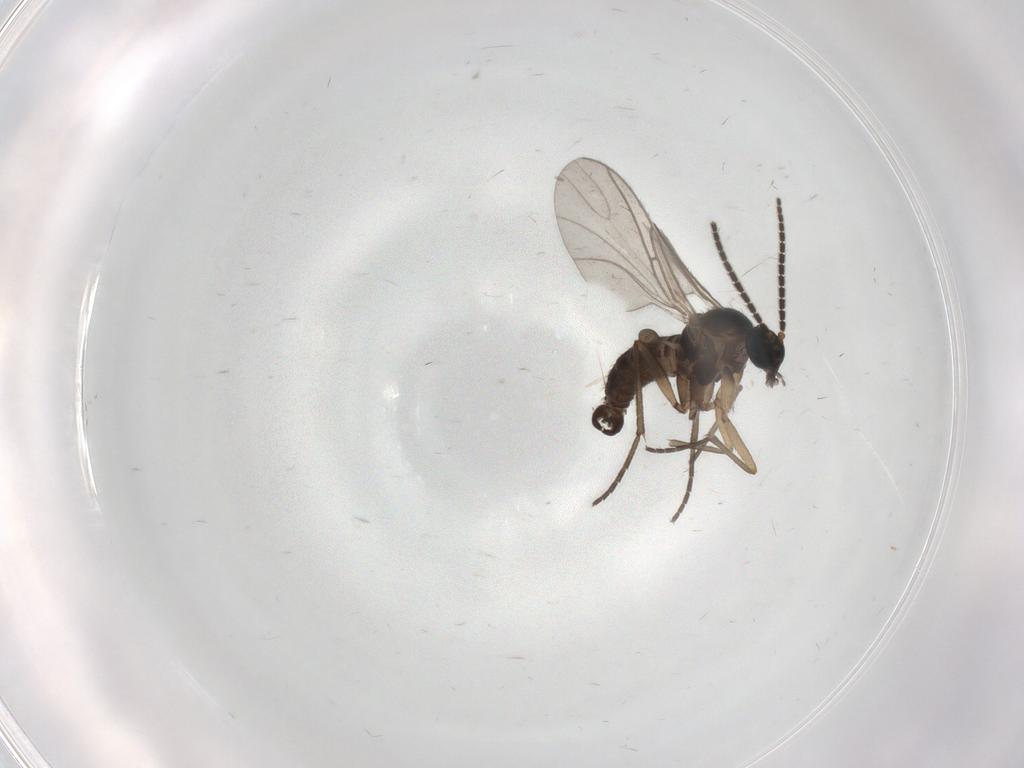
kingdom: Animalia
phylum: Arthropoda
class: Insecta
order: Diptera
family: Sciaridae
